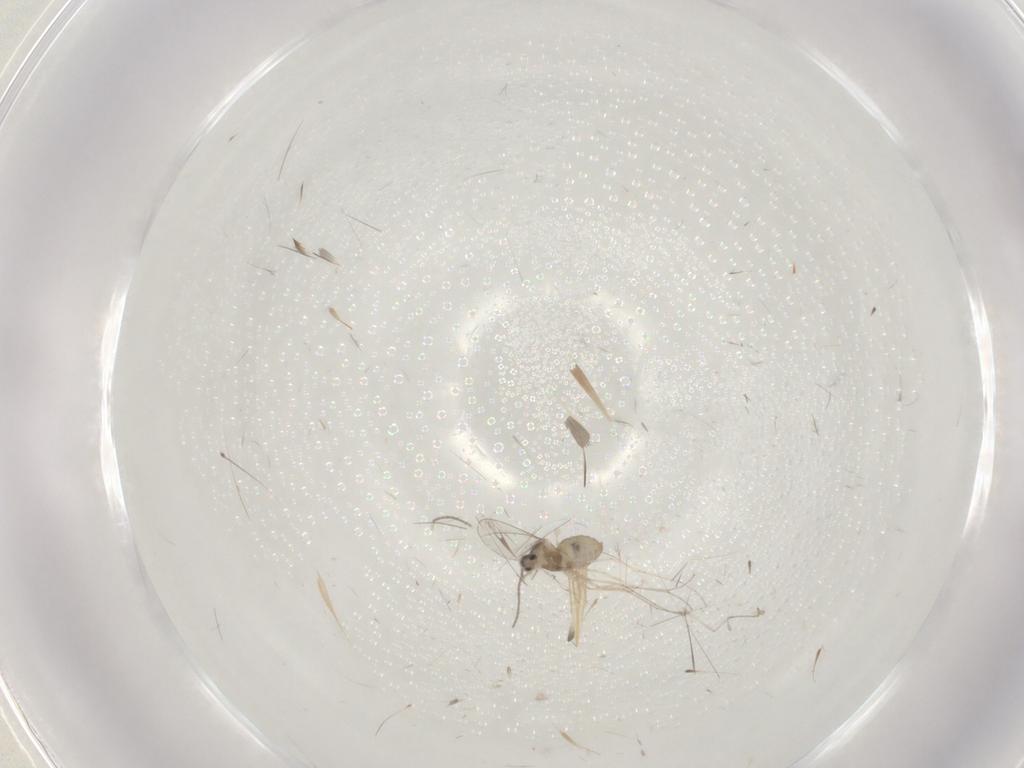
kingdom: Animalia
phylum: Arthropoda
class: Insecta
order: Diptera
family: Cecidomyiidae
